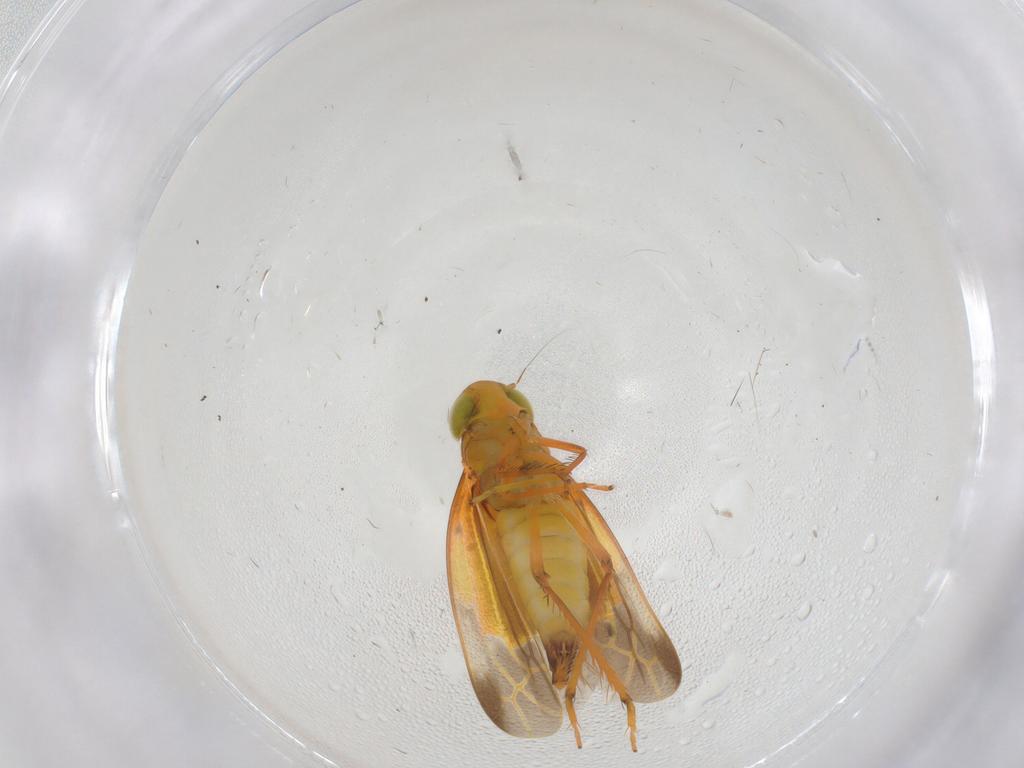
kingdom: Animalia
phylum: Arthropoda
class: Insecta
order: Hemiptera
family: Cicadellidae
